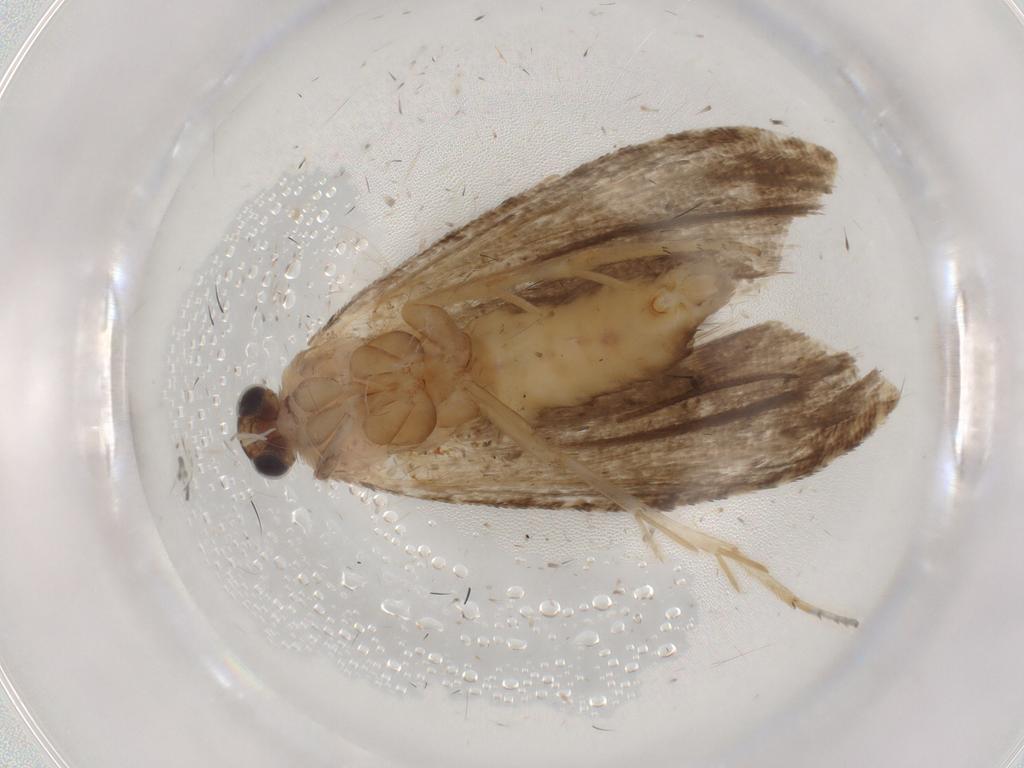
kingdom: Animalia
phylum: Arthropoda
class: Insecta
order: Lepidoptera
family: Tortricidae
